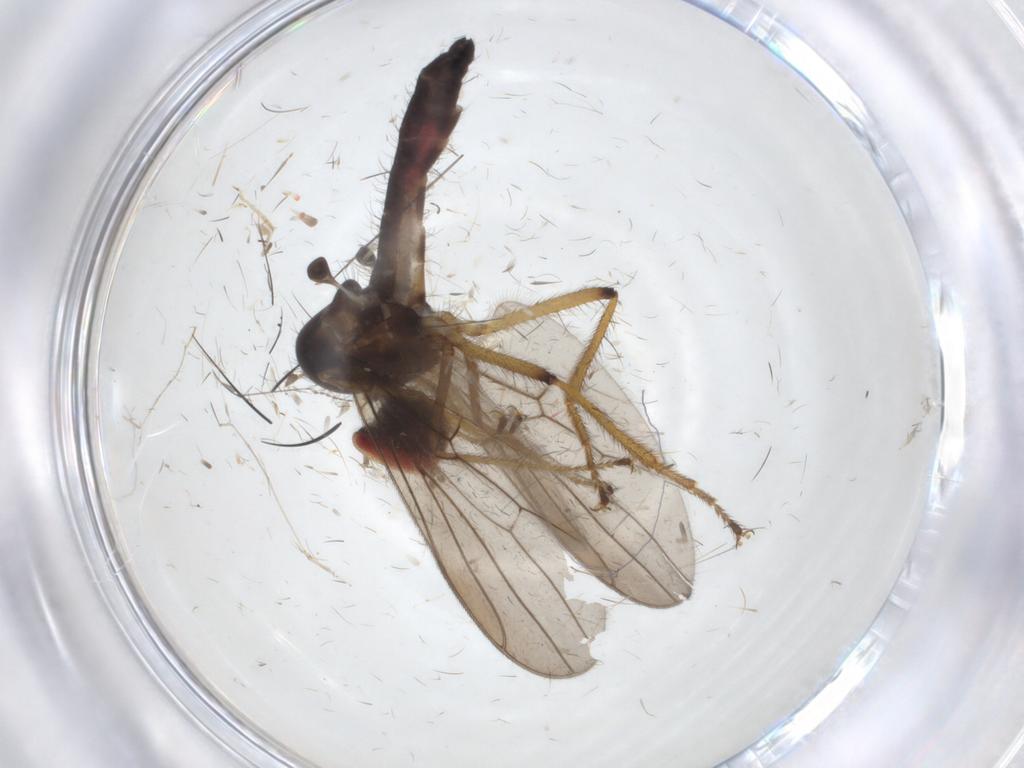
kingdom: Animalia
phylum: Arthropoda
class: Insecta
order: Diptera
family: Hybotidae
